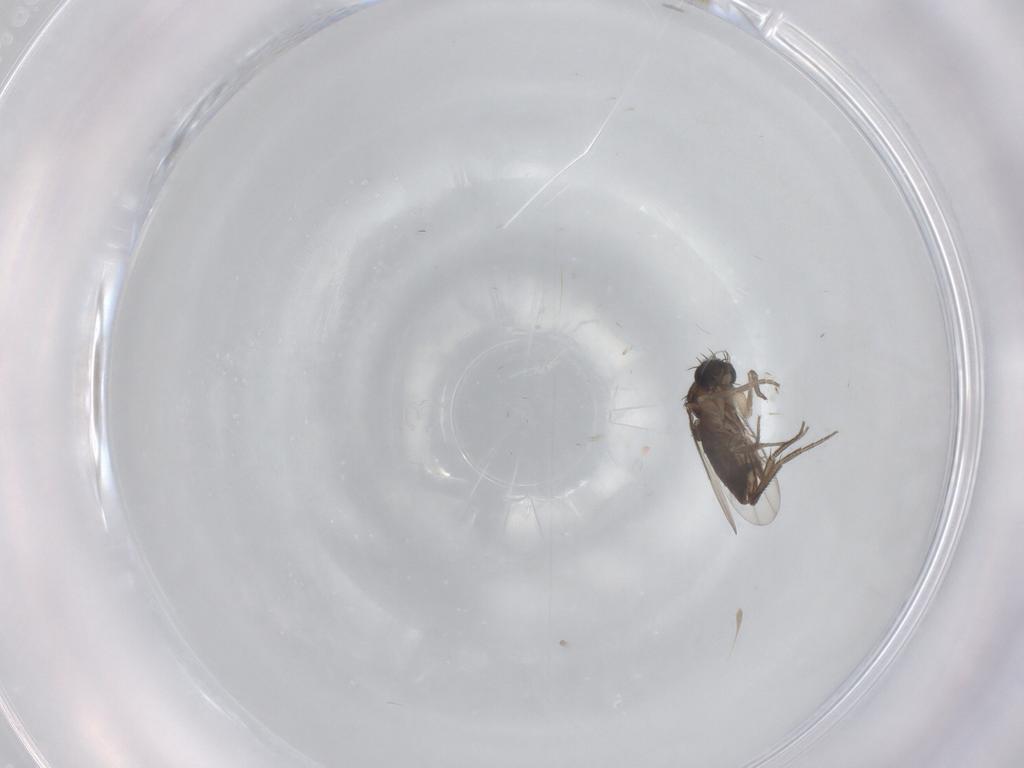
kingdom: Animalia
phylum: Arthropoda
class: Insecta
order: Diptera
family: Phoridae
